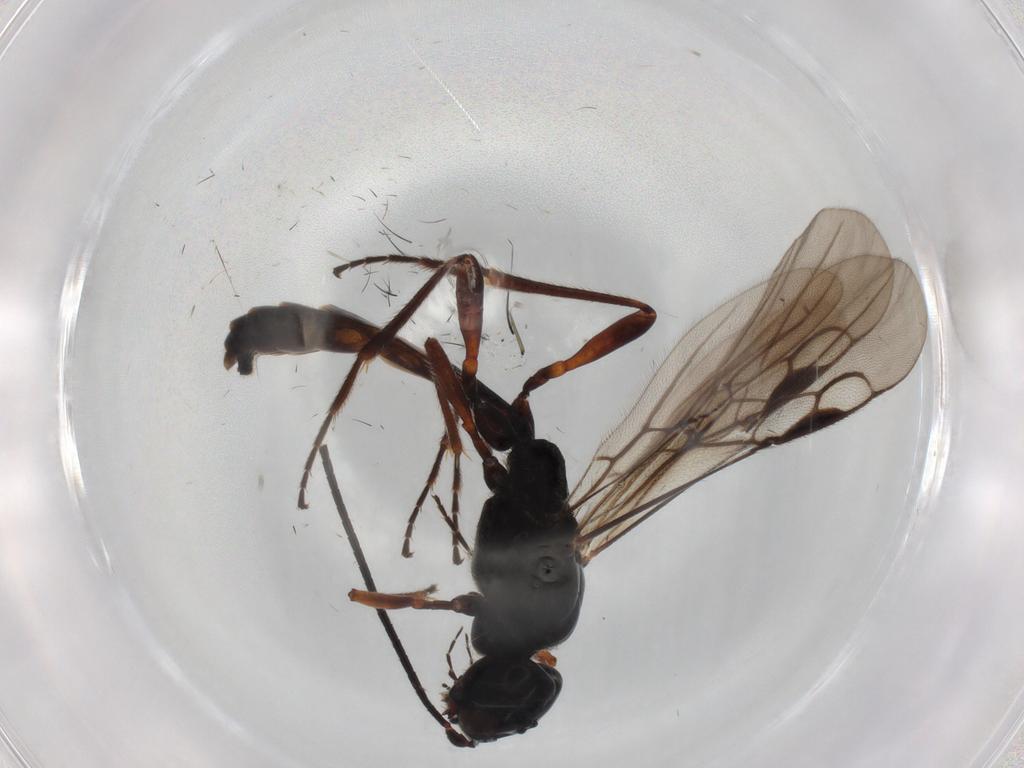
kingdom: Animalia
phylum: Arthropoda
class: Insecta
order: Hymenoptera
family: Braconidae
